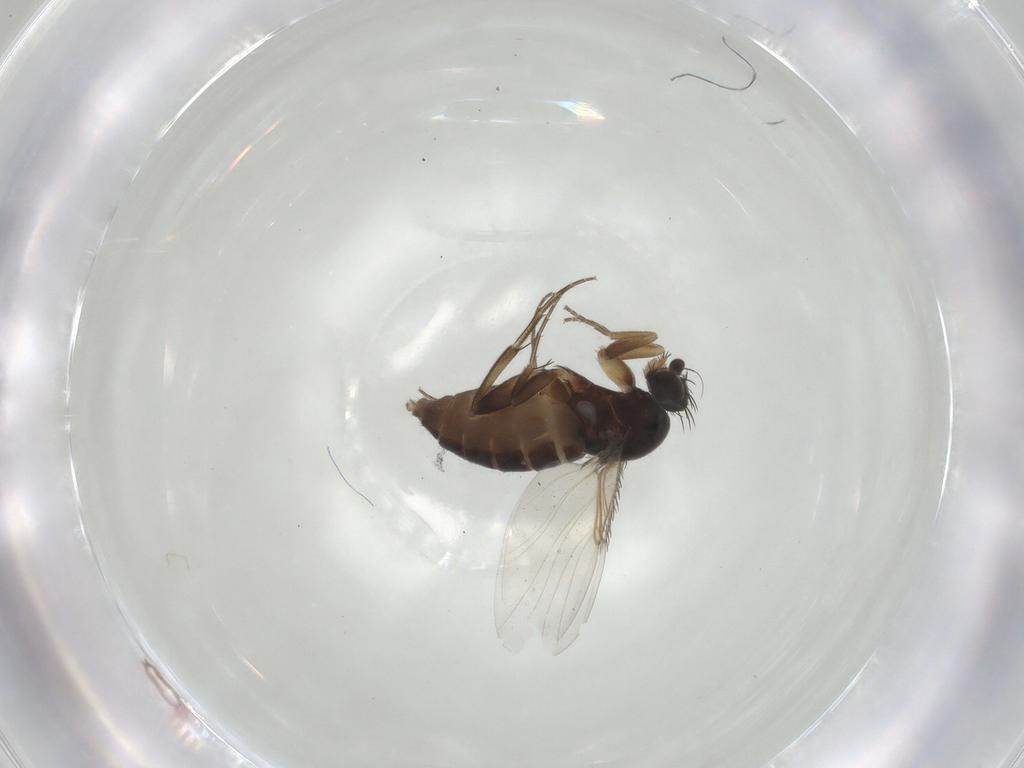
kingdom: Animalia
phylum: Arthropoda
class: Insecta
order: Diptera
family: Phoridae
